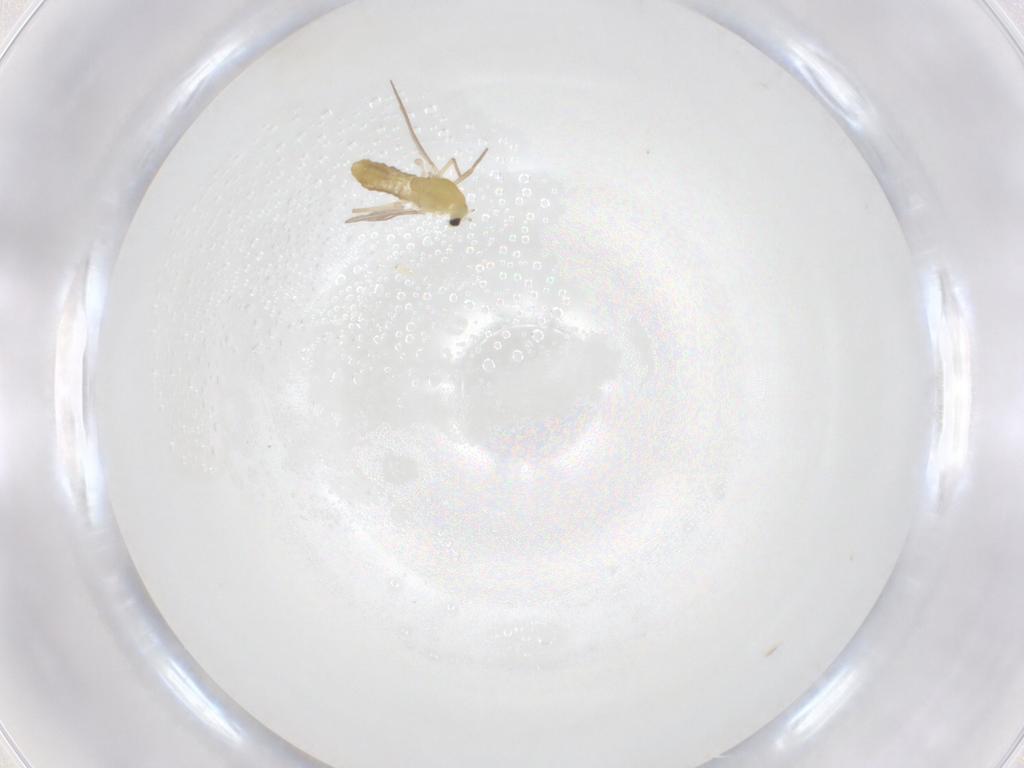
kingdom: Animalia
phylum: Arthropoda
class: Insecta
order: Diptera
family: Chironomidae
